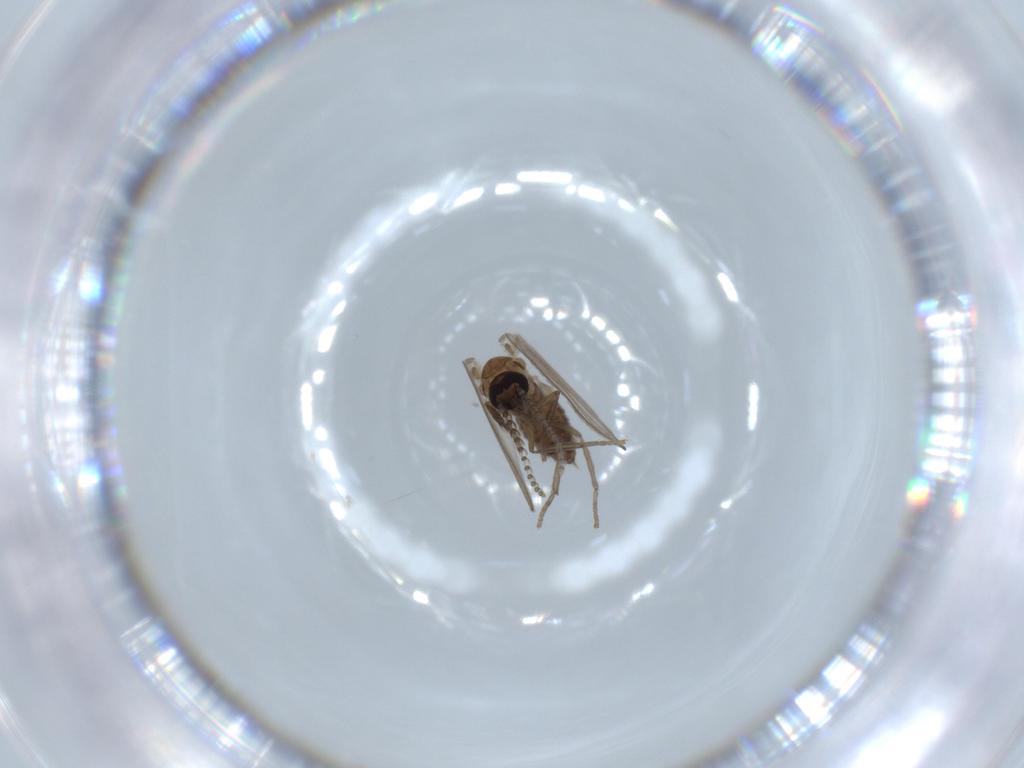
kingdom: Animalia
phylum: Arthropoda
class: Insecta
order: Diptera
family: Psychodidae
